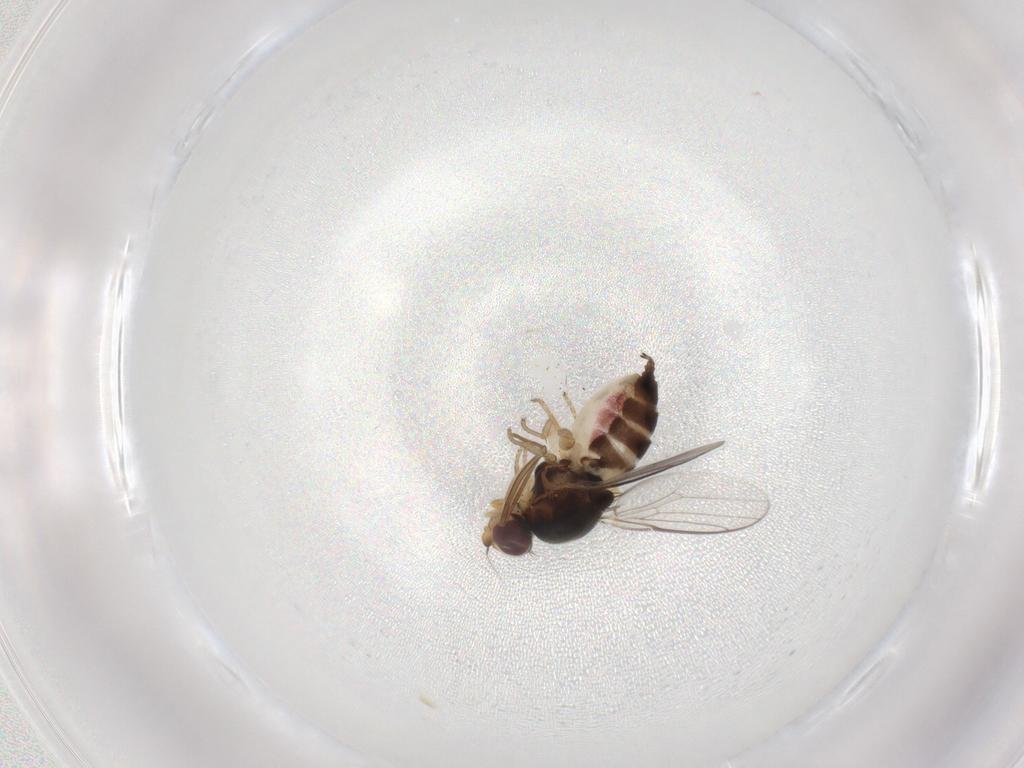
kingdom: Animalia
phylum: Arthropoda
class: Insecta
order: Diptera
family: Chloropidae
